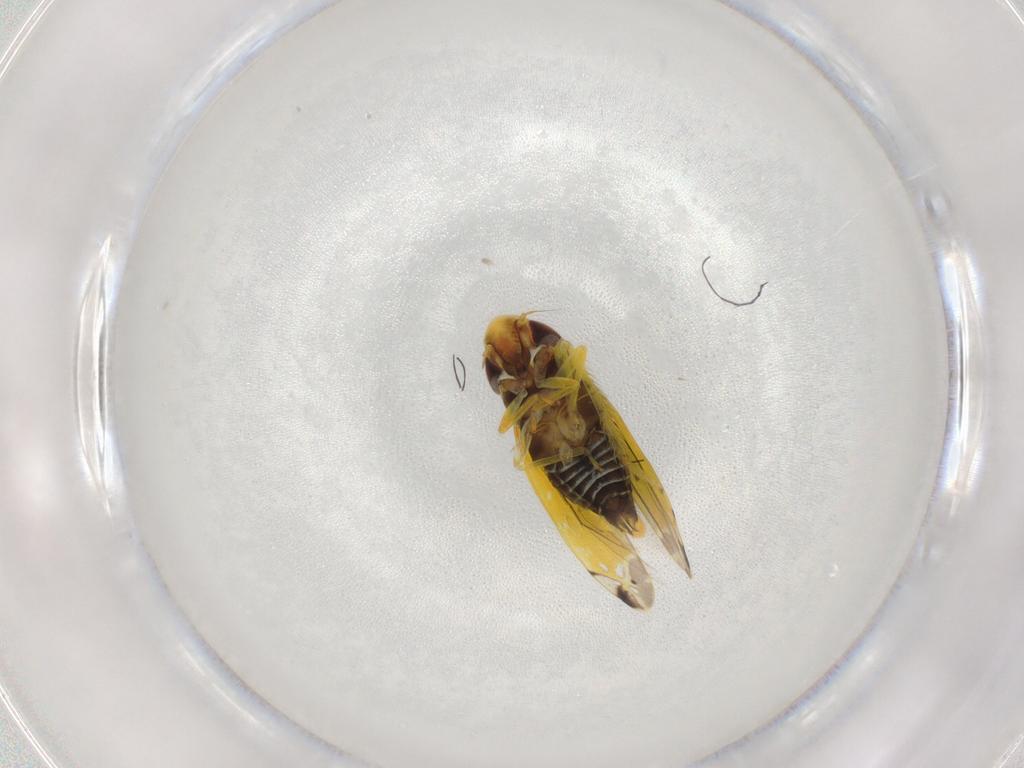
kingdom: Animalia
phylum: Arthropoda
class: Insecta
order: Hemiptera
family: Cicadellidae
